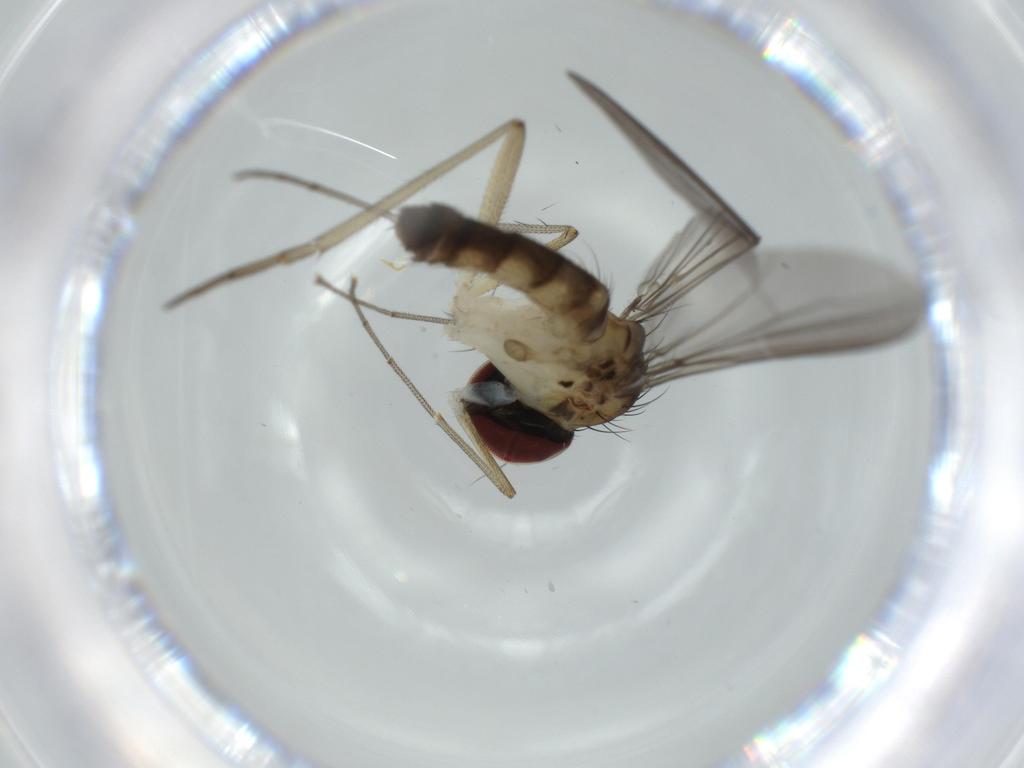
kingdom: Animalia
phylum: Arthropoda
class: Insecta
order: Diptera
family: Dolichopodidae
